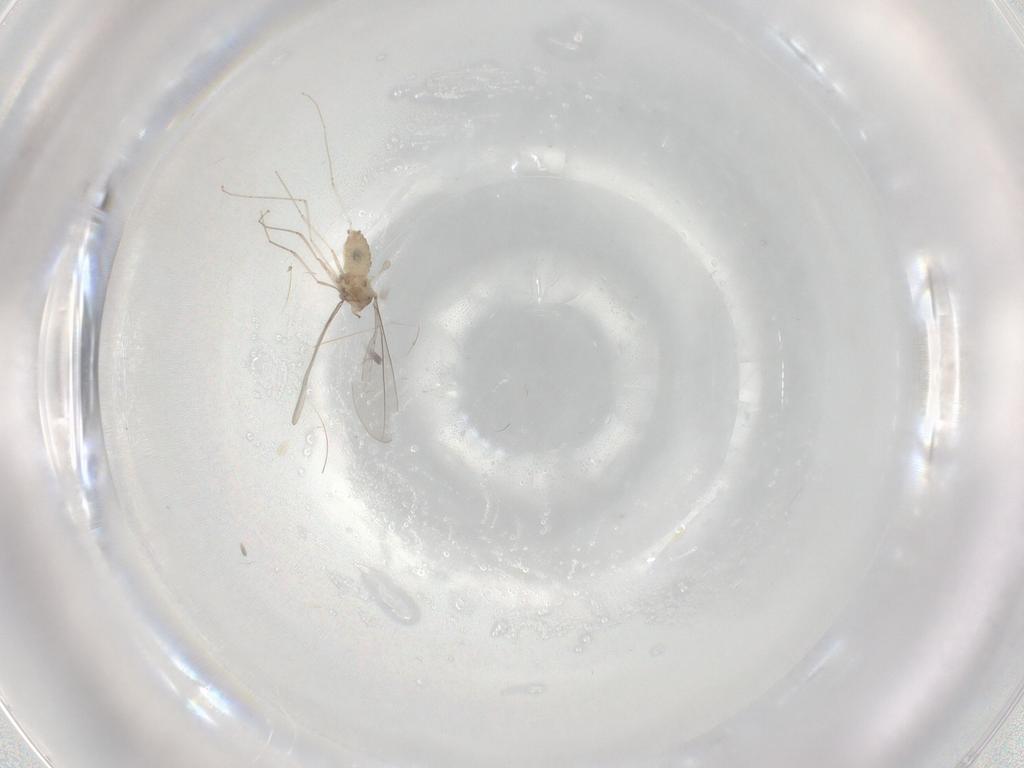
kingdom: Animalia
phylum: Arthropoda
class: Insecta
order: Diptera
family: Cecidomyiidae
